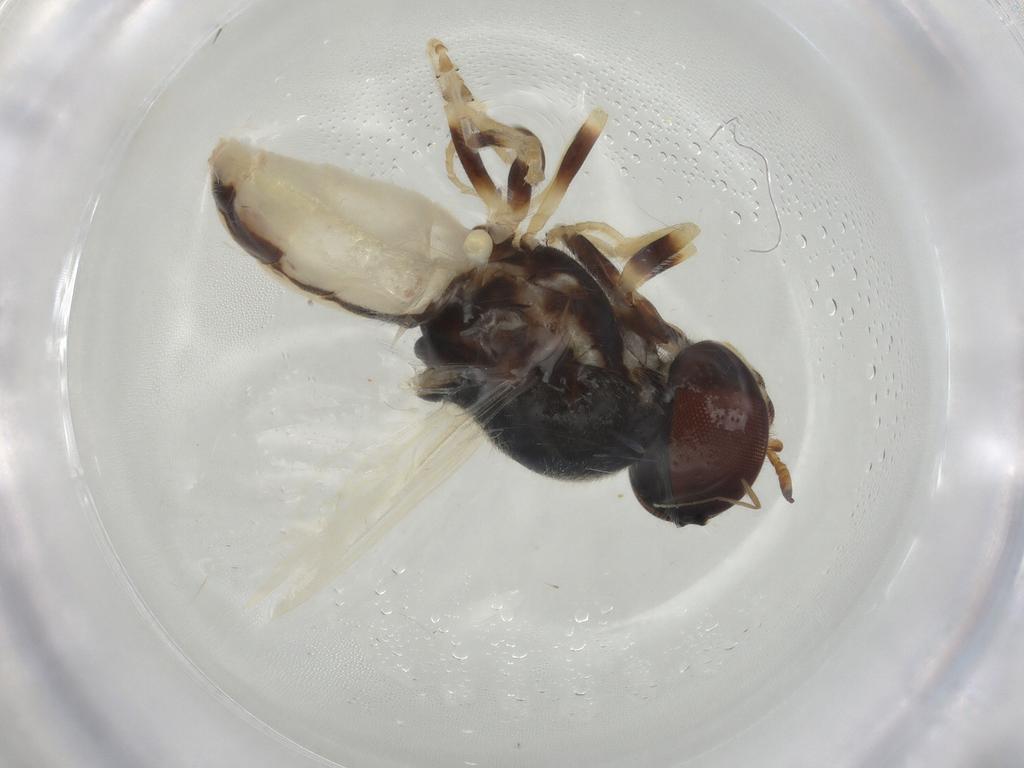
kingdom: Animalia
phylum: Arthropoda
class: Insecta
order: Diptera
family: Stratiomyidae
